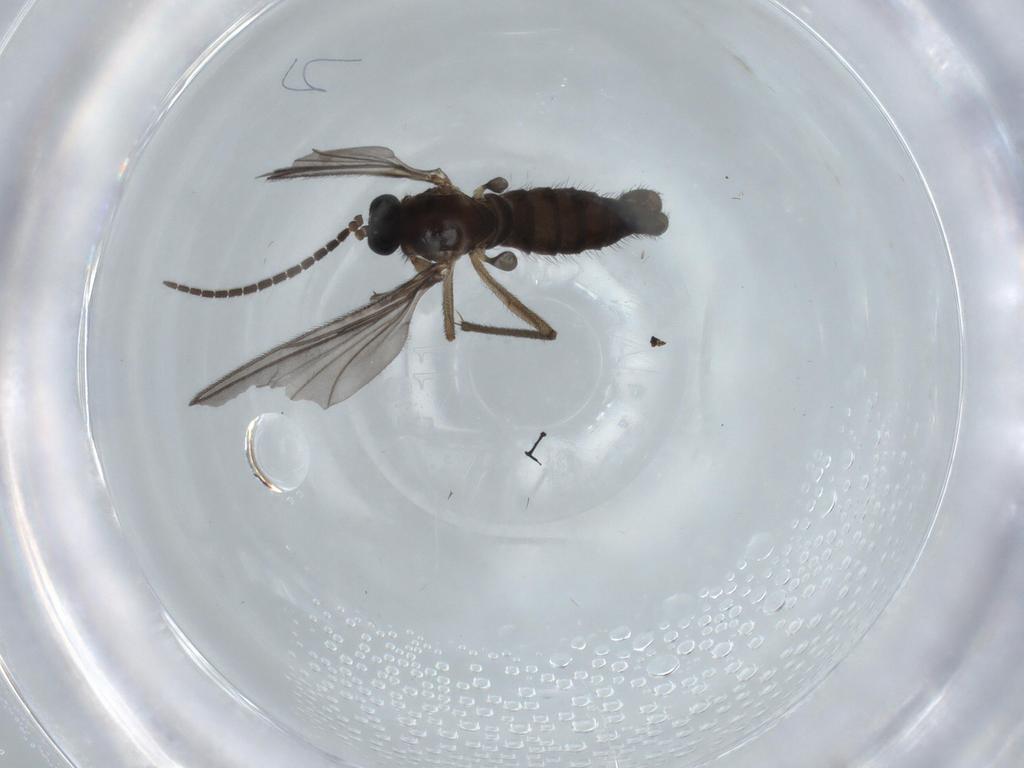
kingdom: Animalia
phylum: Arthropoda
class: Insecta
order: Diptera
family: Sciaridae
